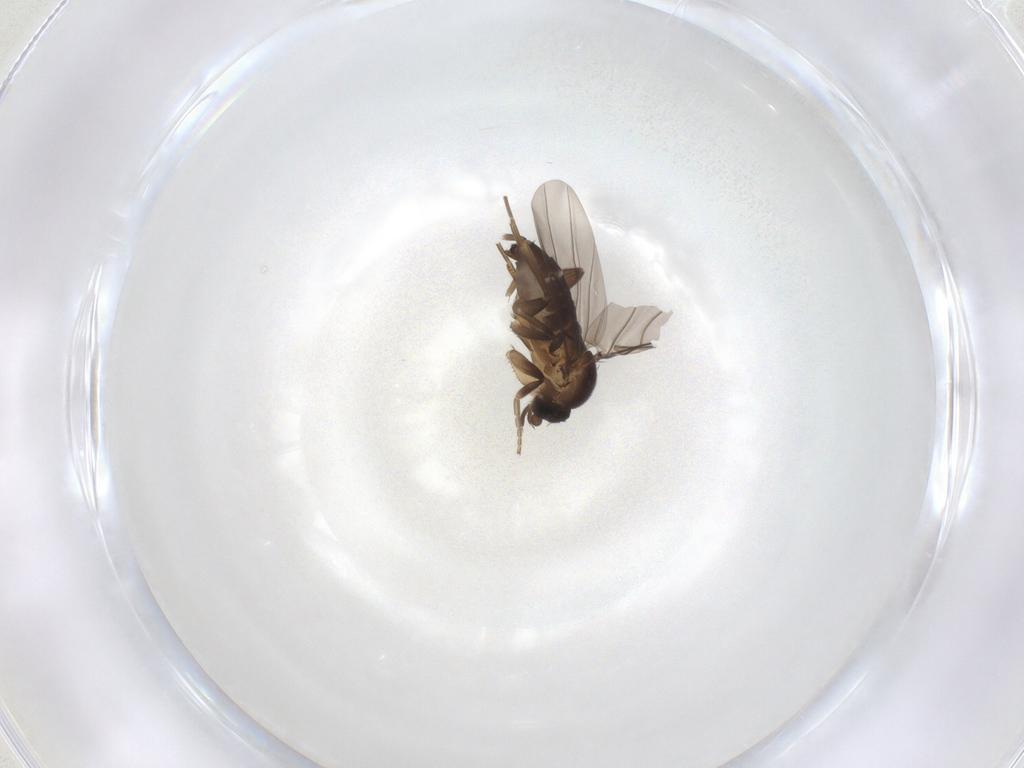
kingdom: Animalia
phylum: Arthropoda
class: Insecta
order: Diptera
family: Phoridae
